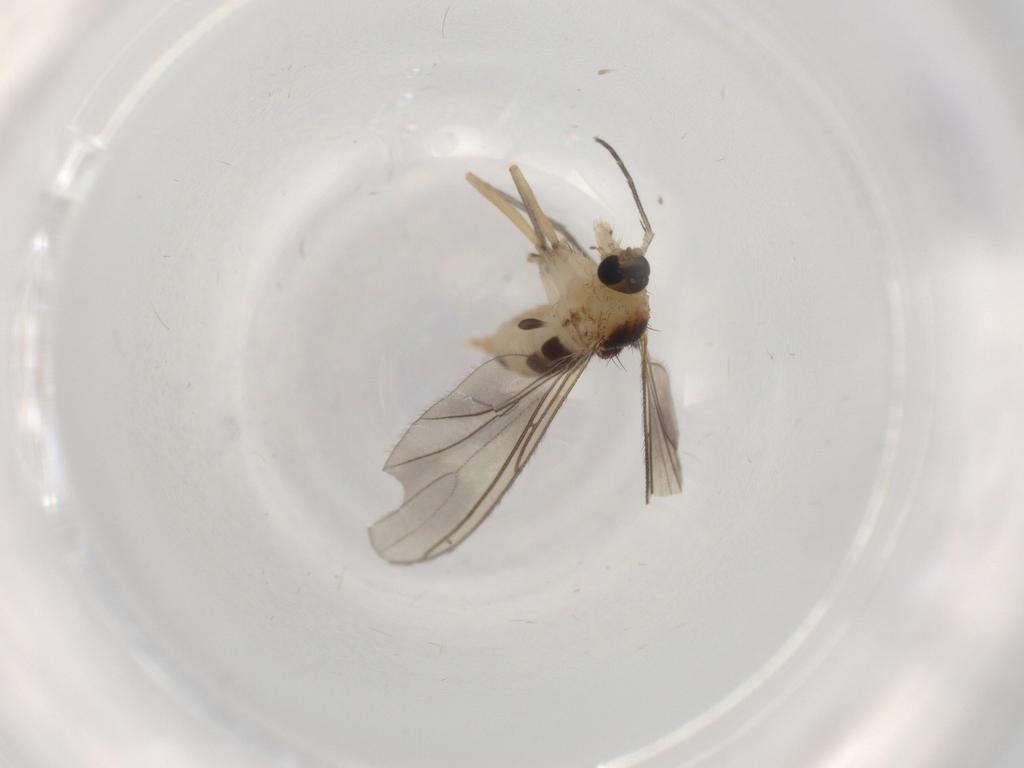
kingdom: Animalia
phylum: Arthropoda
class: Insecta
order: Diptera
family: Sciaridae
